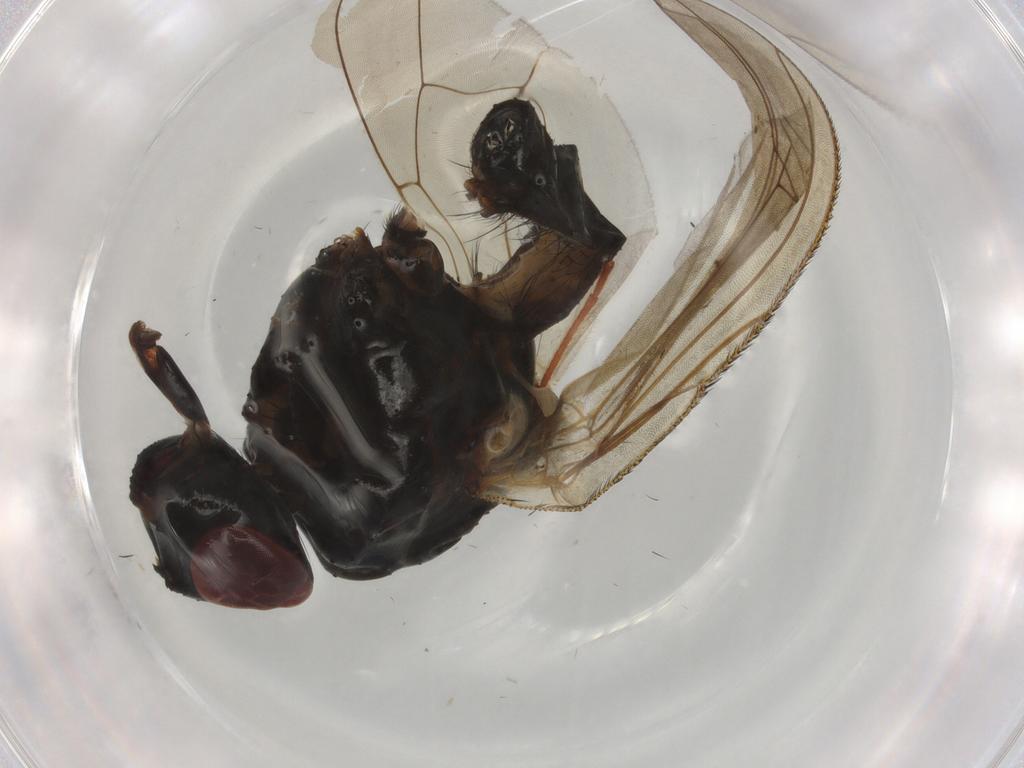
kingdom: Animalia
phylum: Arthropoda
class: Insecta
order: Diptera
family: Anthomyiidae
